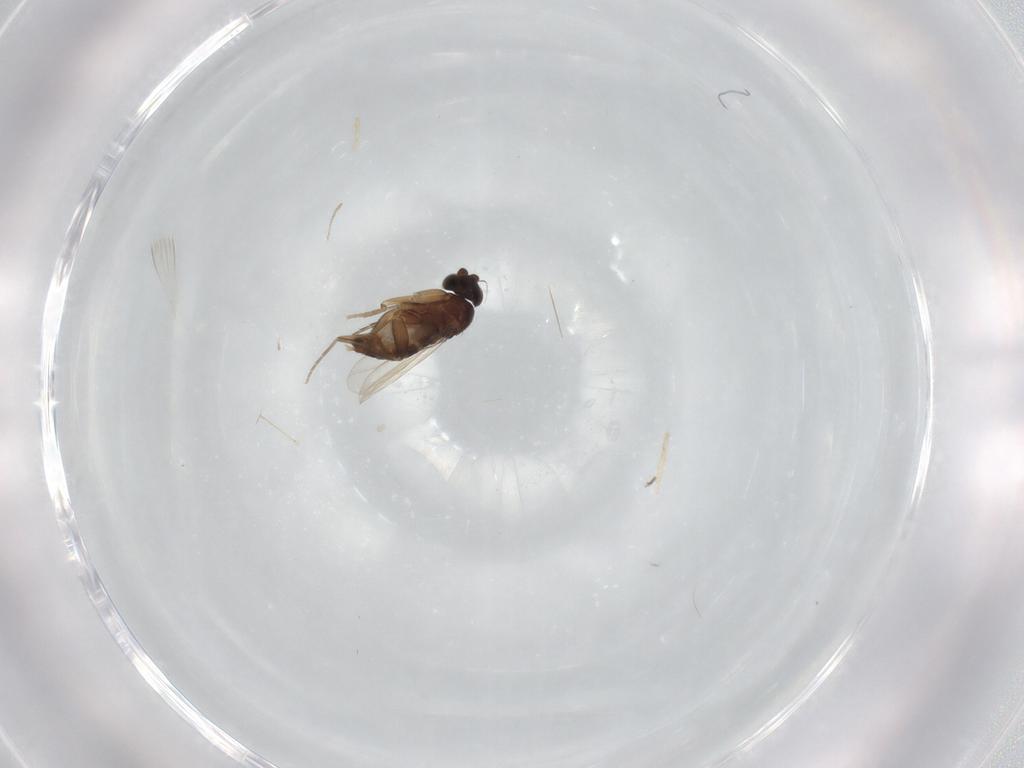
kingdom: Animalia
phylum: Arthropoda
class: Insecta
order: Diptera
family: Phoridae
